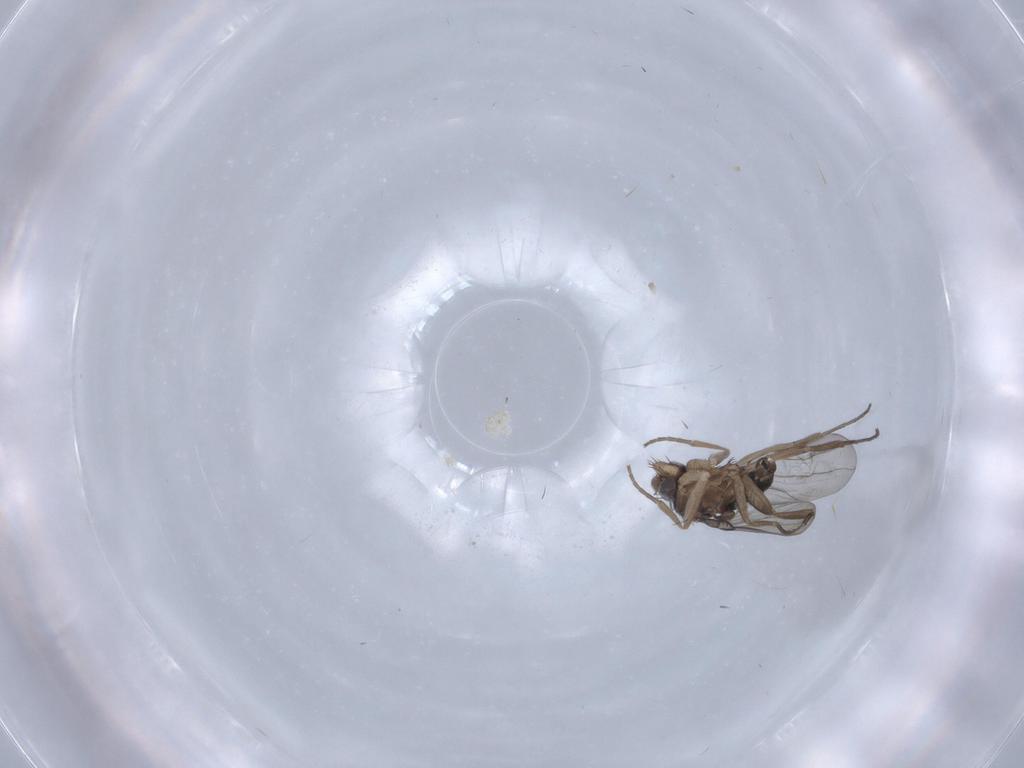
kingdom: Animalia
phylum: Arthropoda
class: Insecta
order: Diptera
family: Phoridae
